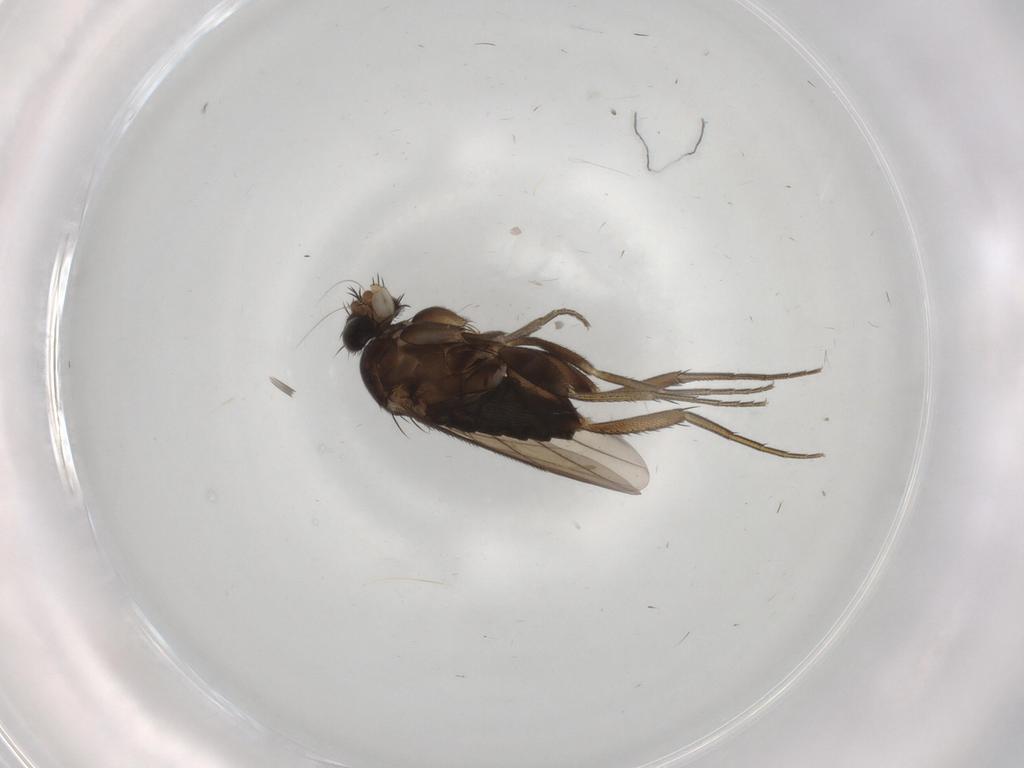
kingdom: Animalia
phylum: Arthropoda
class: Insecta
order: Diptera
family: Phoridae
